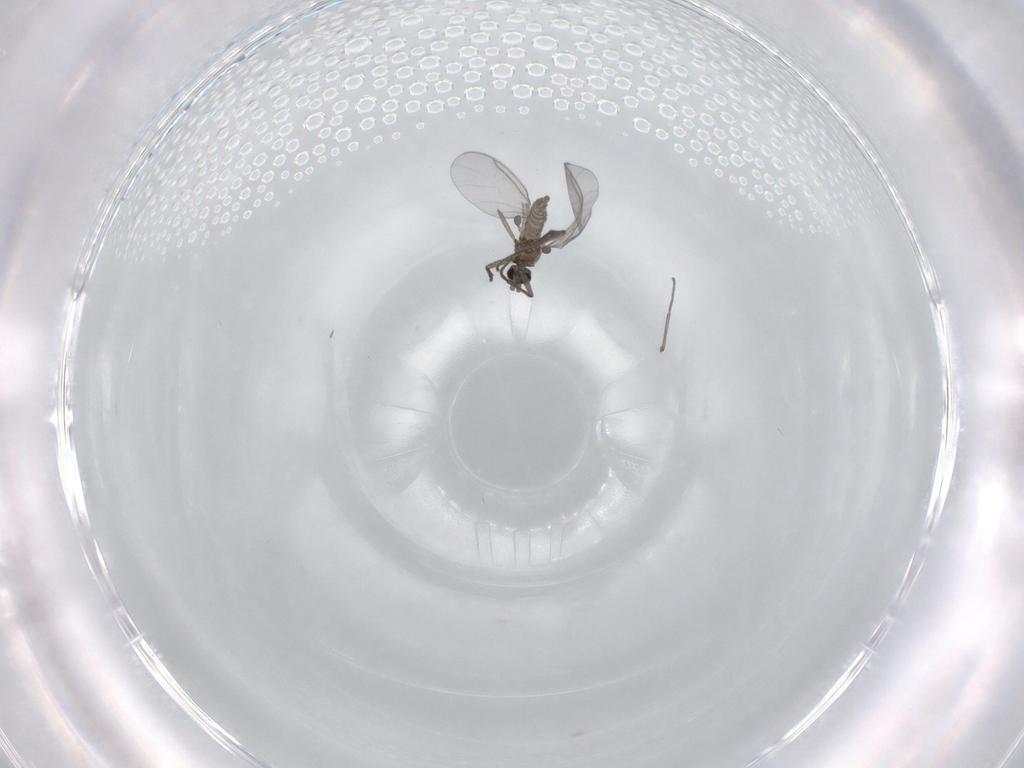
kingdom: Animalia
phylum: Arthropoda
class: Insecta
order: Diptera
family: Sciaridae
